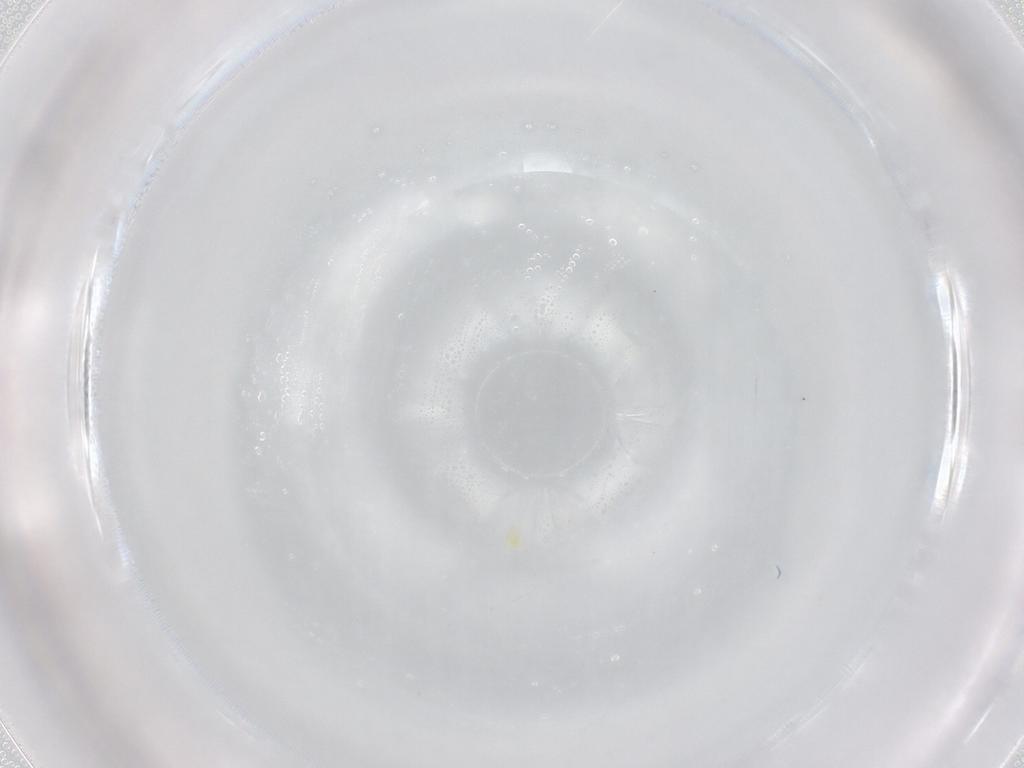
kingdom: Animalia
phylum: Arthropoda
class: Arachnida
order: Trombidiformes
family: Eupodidae
